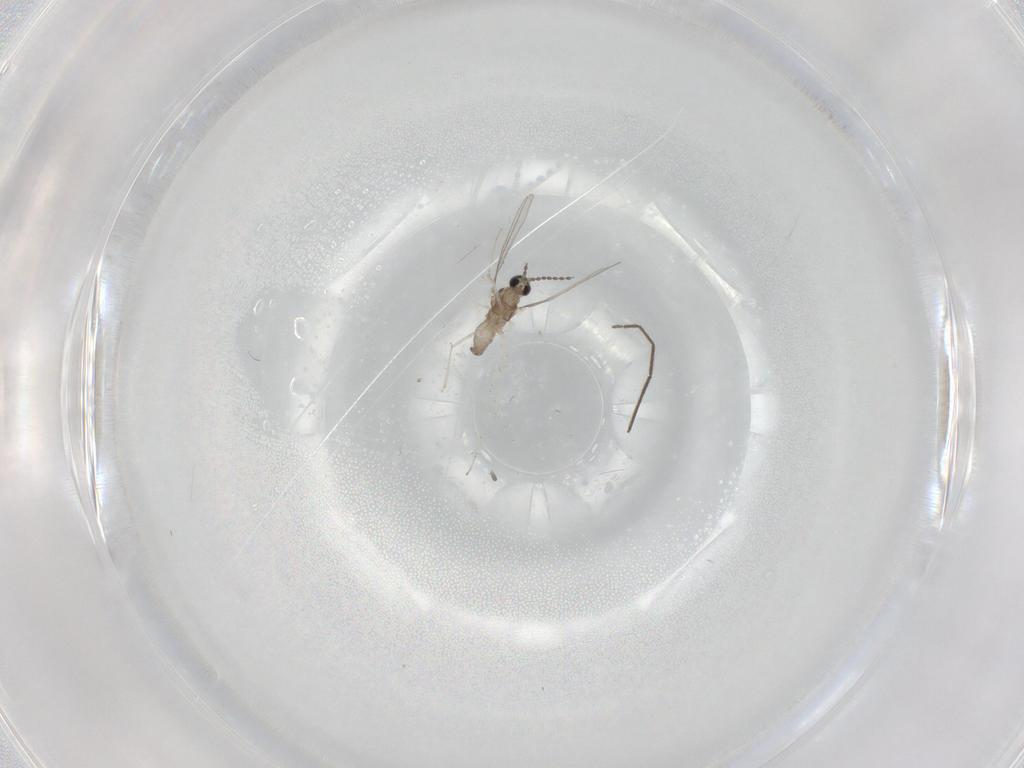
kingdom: Animalia
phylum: Arthropoda
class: Insecta
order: Diptera
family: Cecidomyiidae
